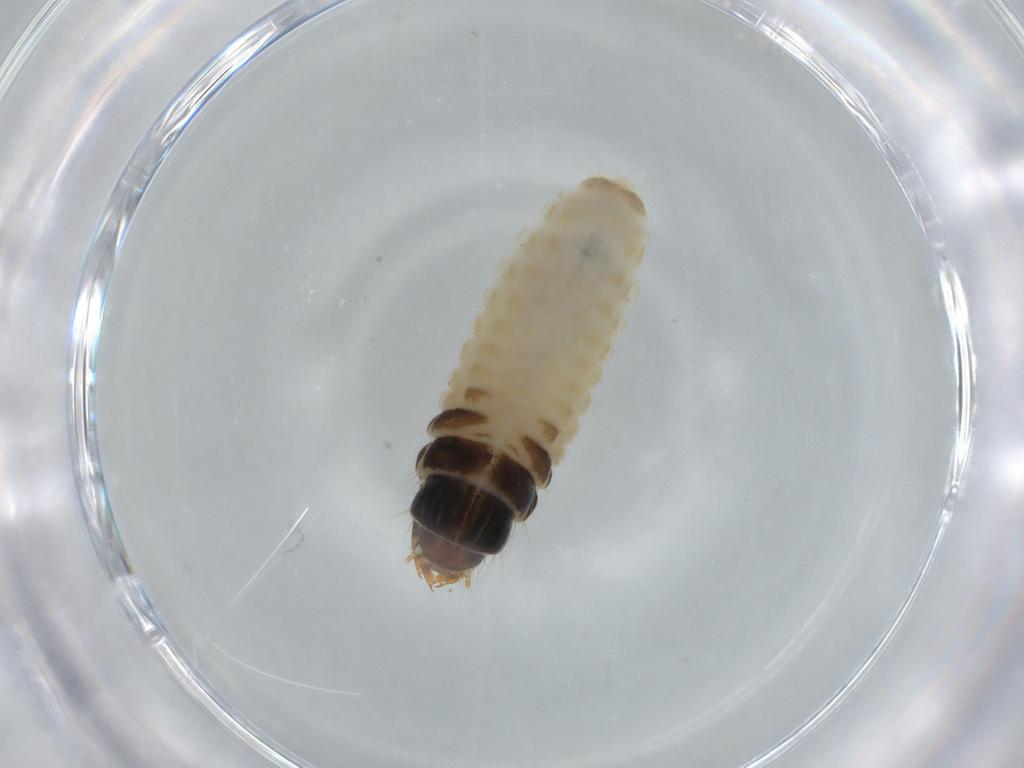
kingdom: Animalia
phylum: Arthropoda
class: Insecta
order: Lepidoptera
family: Psychidae
